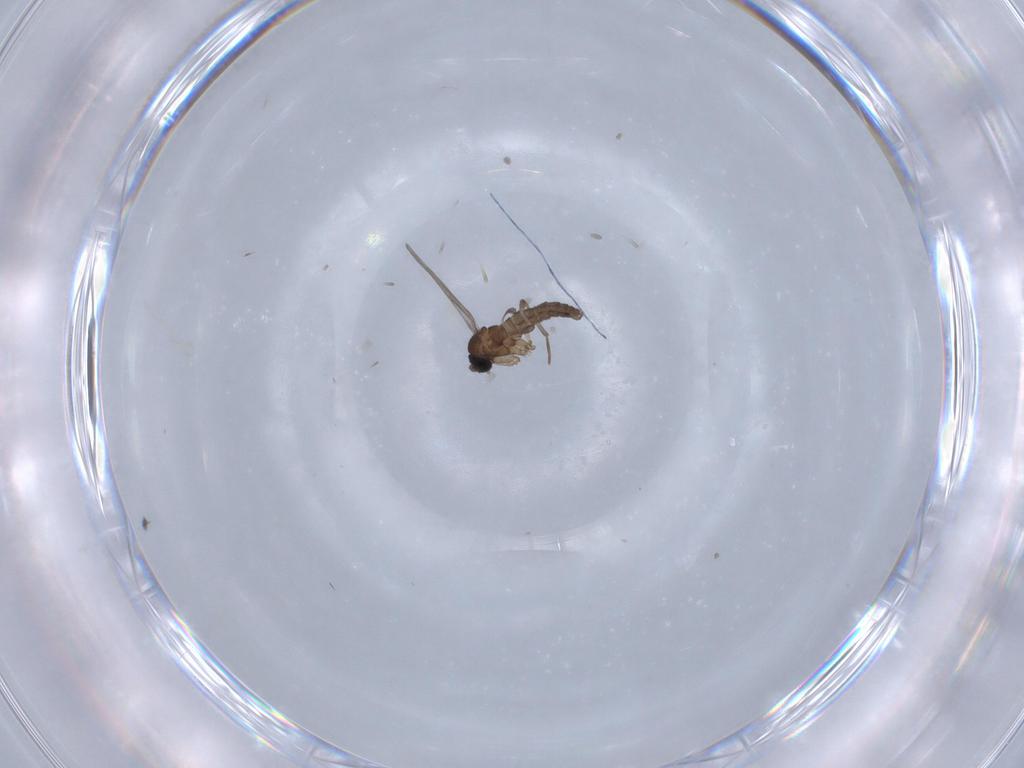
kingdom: Animalia
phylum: Arthropoda
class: Insecta
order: Diptera
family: Sciaridae
